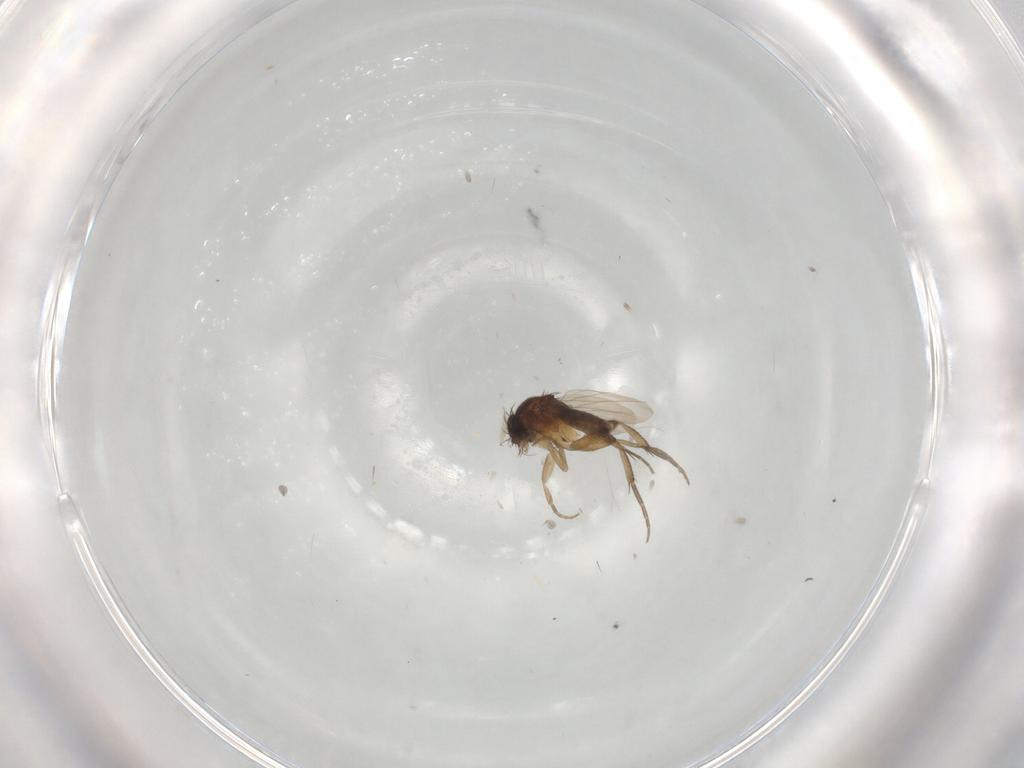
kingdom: Animalia
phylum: Arthropoda
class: Insecta
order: Diptera
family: Phoridae
